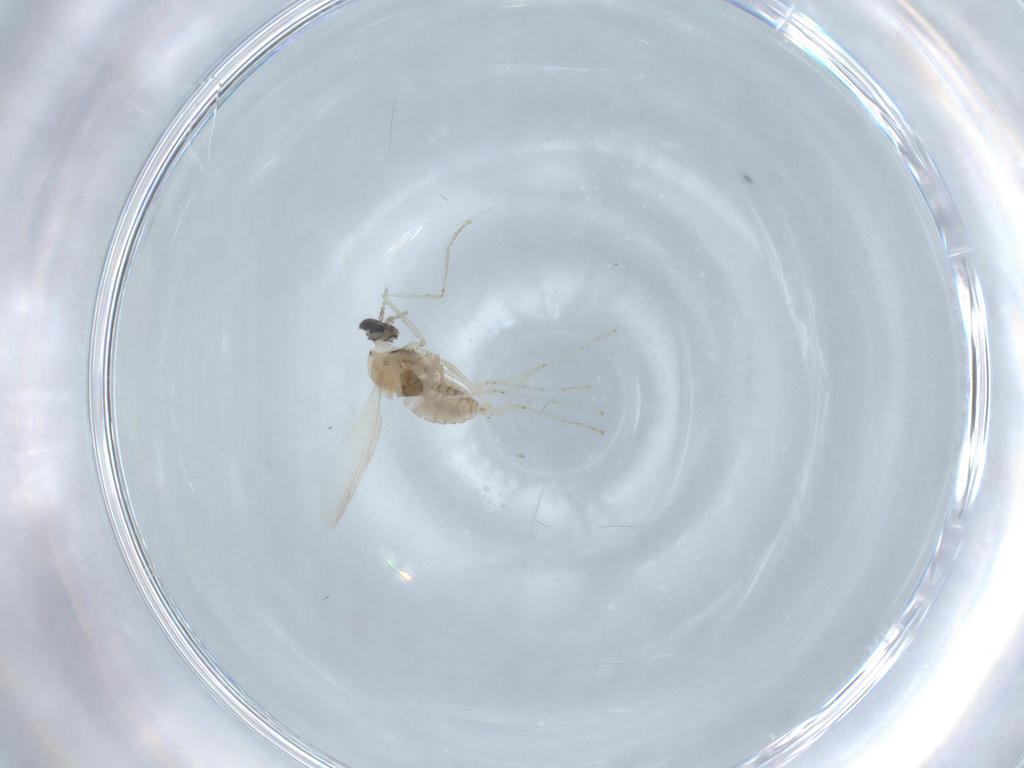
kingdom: Animalia
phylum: Arthropoda
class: Insecta
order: Diptera
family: Cecidomyiidae
